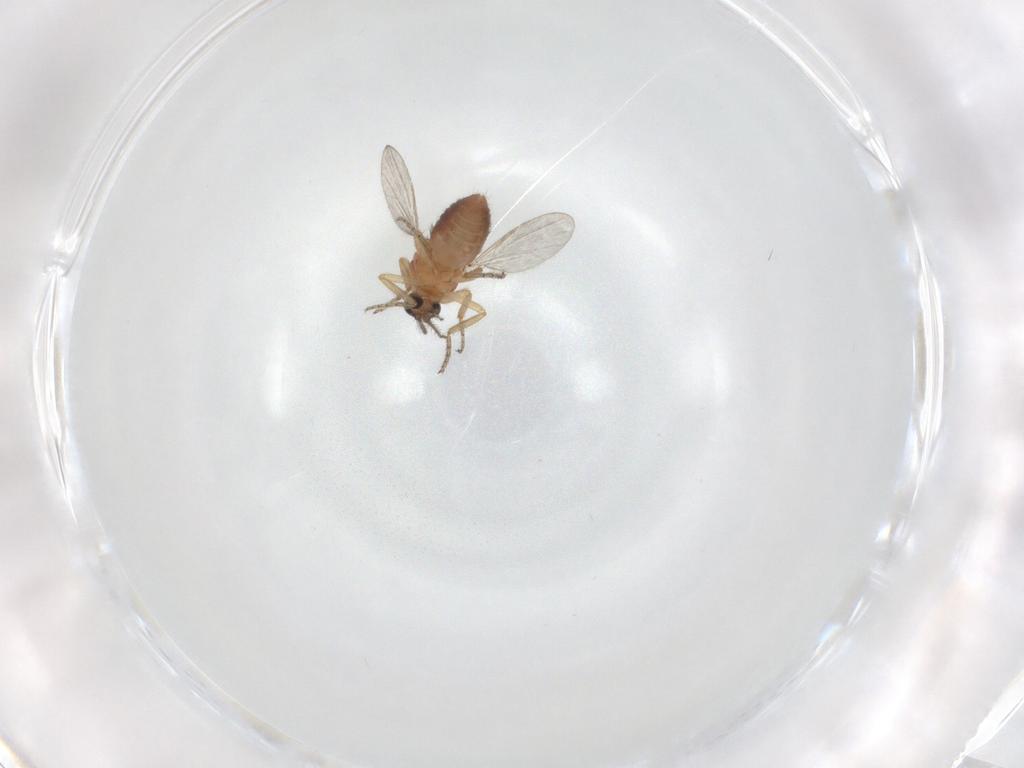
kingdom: Animalia
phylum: Arthropoda
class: Insecta
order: Diptera
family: Ceratopogonidae
